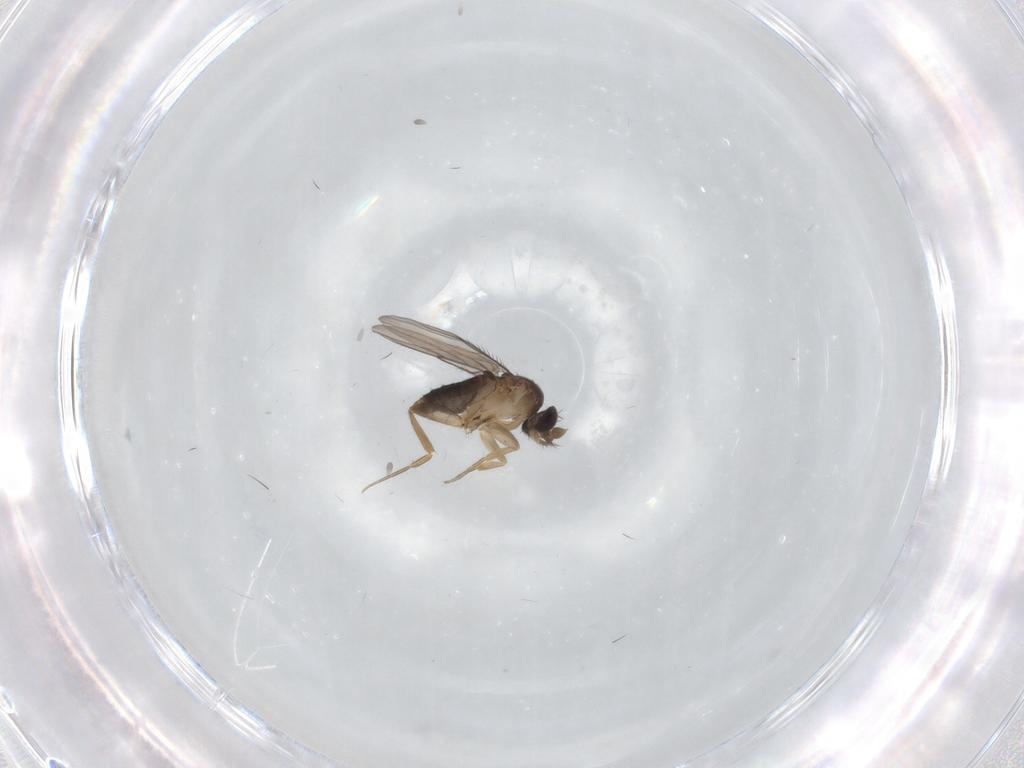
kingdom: Animalia
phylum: Arthropoda
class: Insecta
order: Diptera
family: Phoridae
